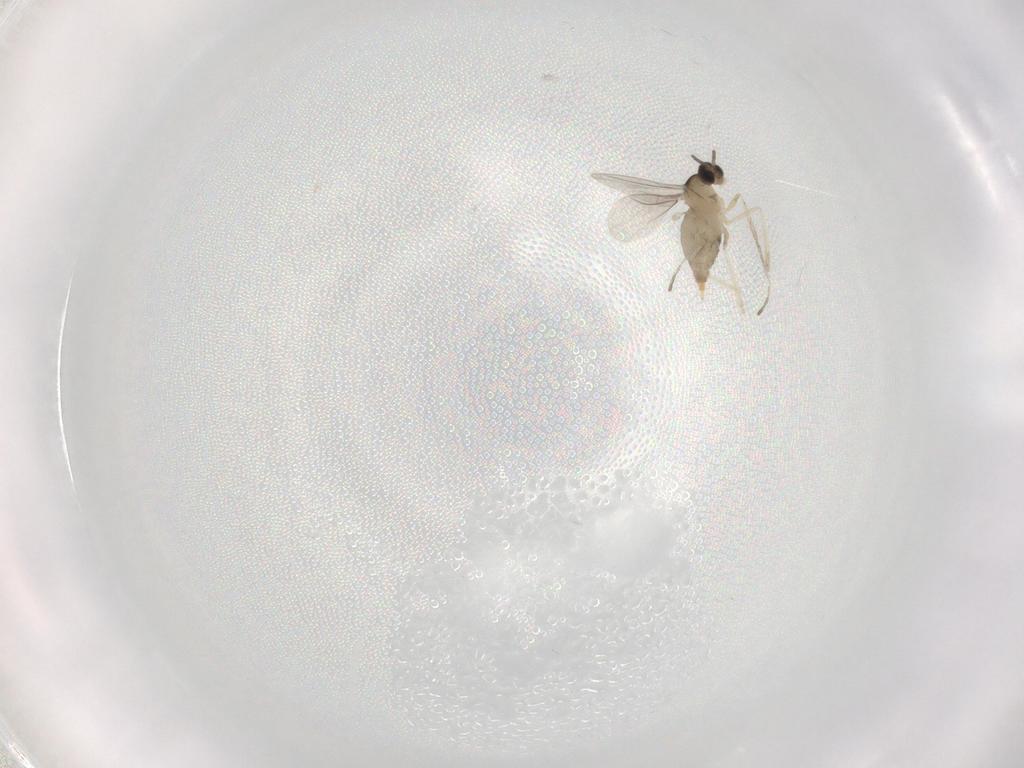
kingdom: Animalia
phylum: Arthropoda
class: Insecta
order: Diptera
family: Cecidomyiidae
